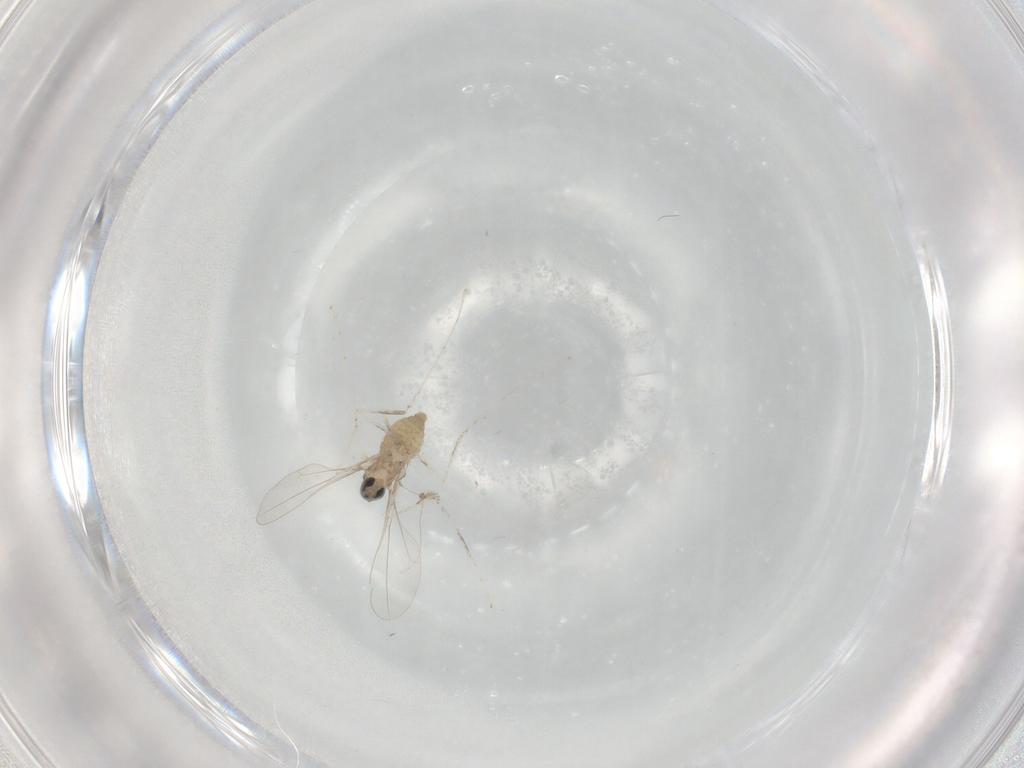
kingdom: Animalia
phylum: Arthropoda
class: Insecta
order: Diptera
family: Cecidomyiidae
